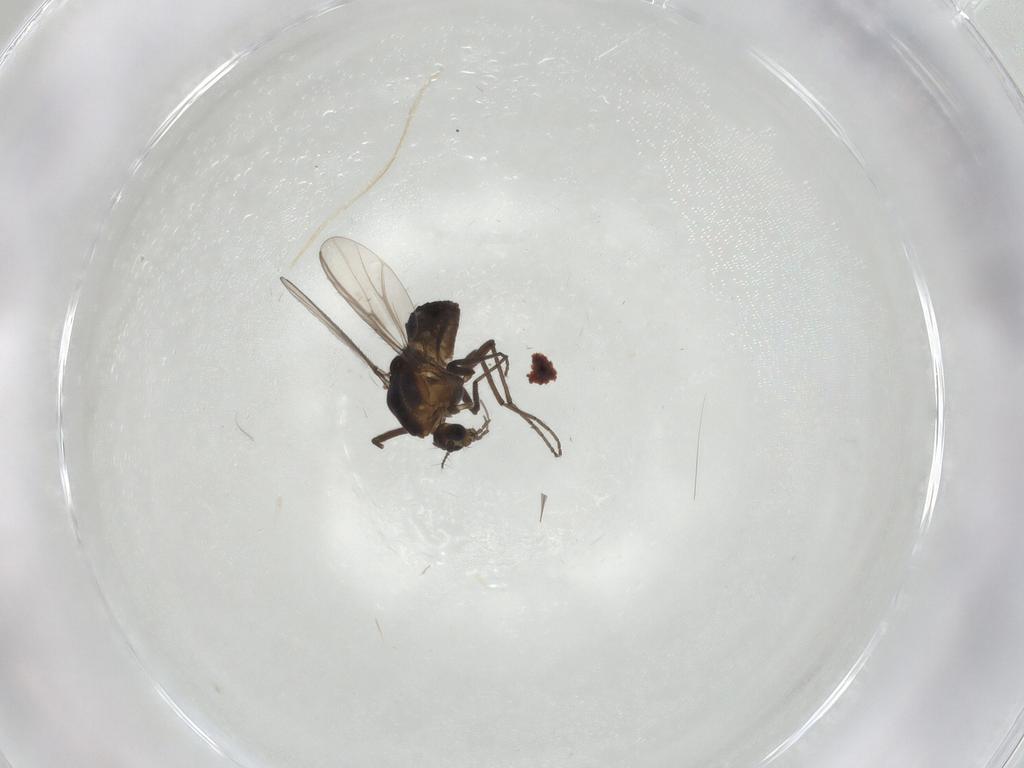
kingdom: Animalia
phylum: Arthropoda
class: Insecta
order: Diptera
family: Chironomidae
